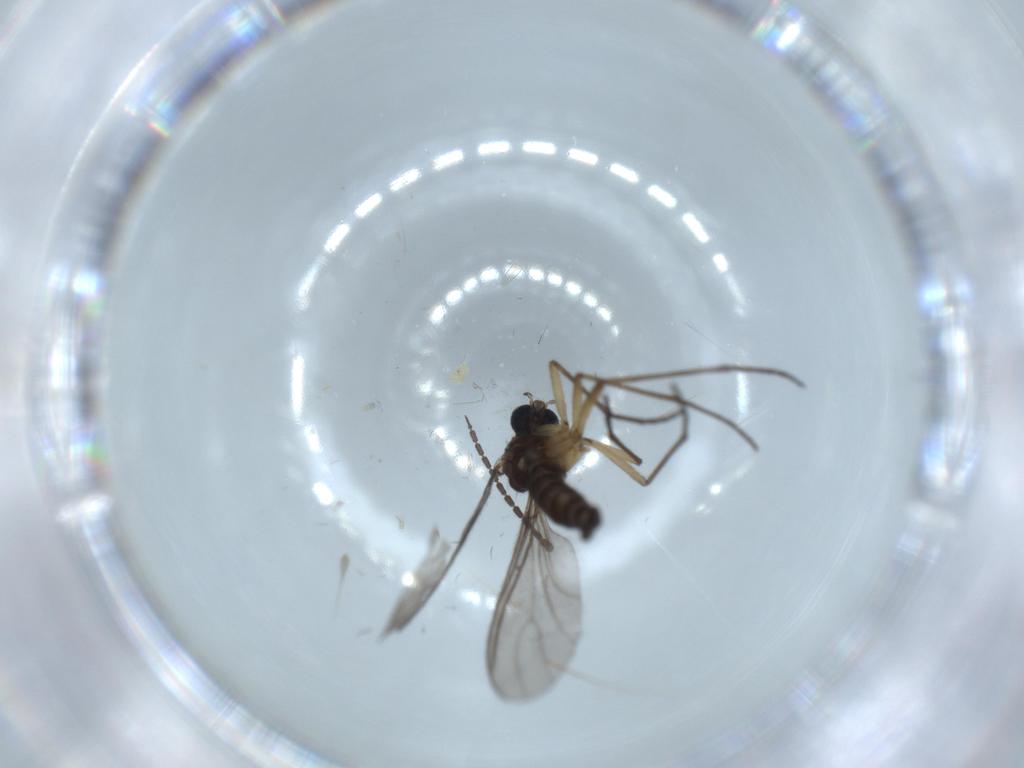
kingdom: Animalia
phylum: Arthropoda
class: Insecta
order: Diptera
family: Sciaridae
